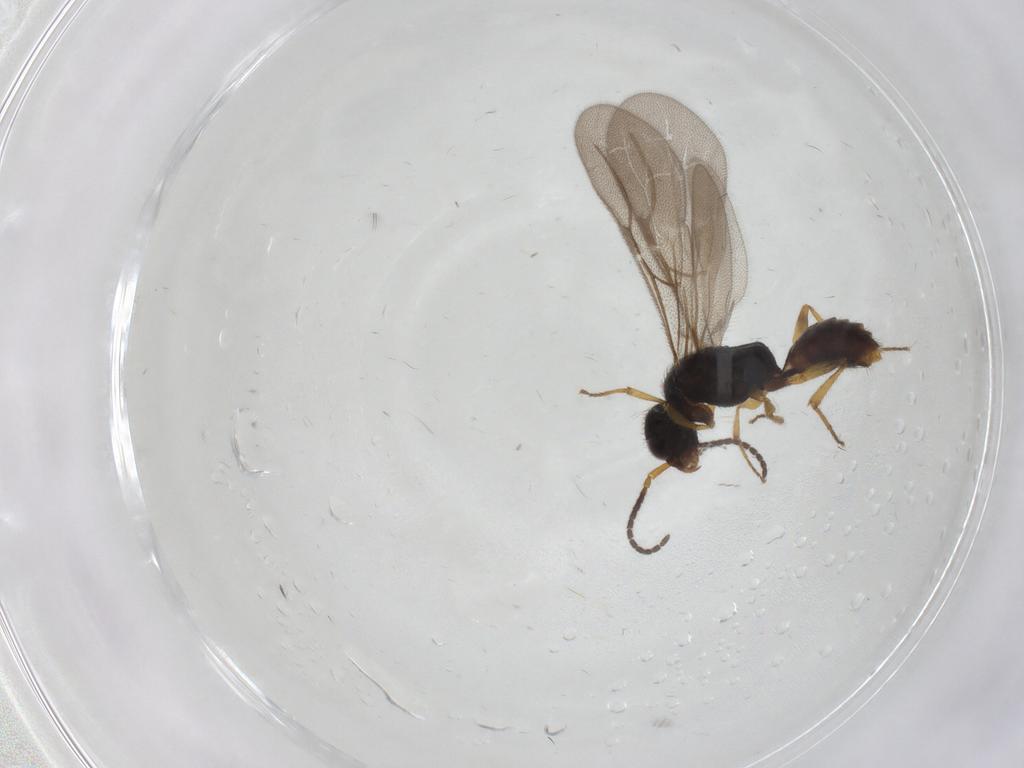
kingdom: Animalia
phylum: Arthropoda
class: Insecta
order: Hymenoptera
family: Bethylidae
